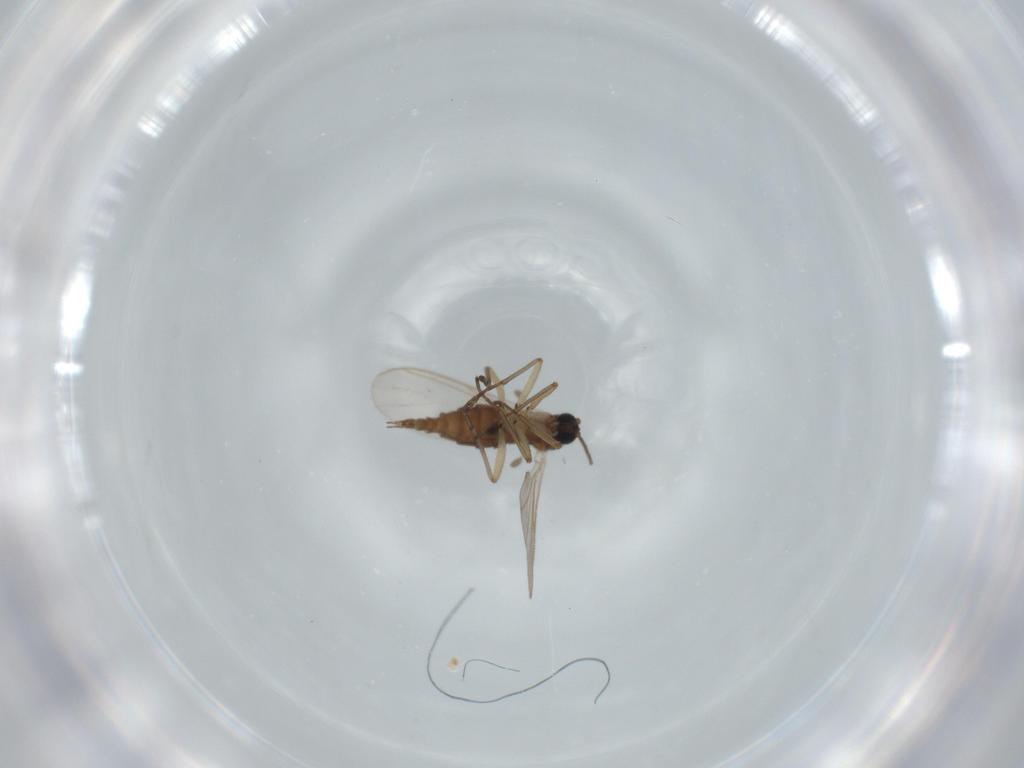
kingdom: Animalia
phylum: Arthropoda
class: Insecta
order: Diptera
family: Sciaridae
